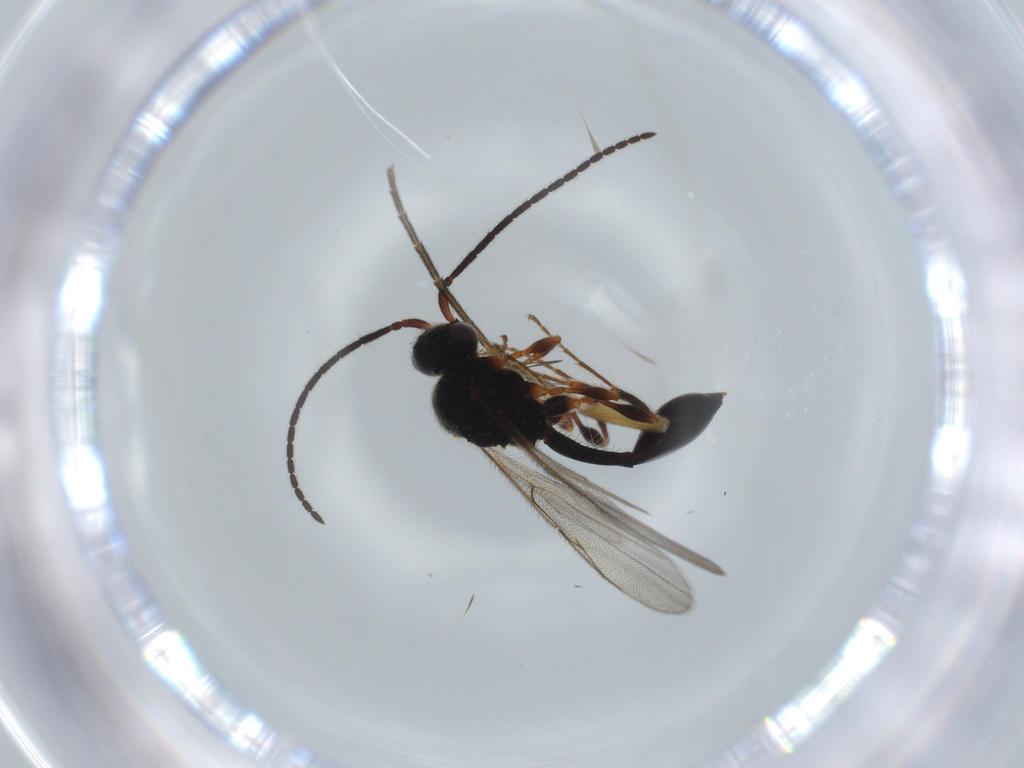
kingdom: Animalia
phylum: Arthropoda
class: Insecta
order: Hymenoptera
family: Diapriidae
